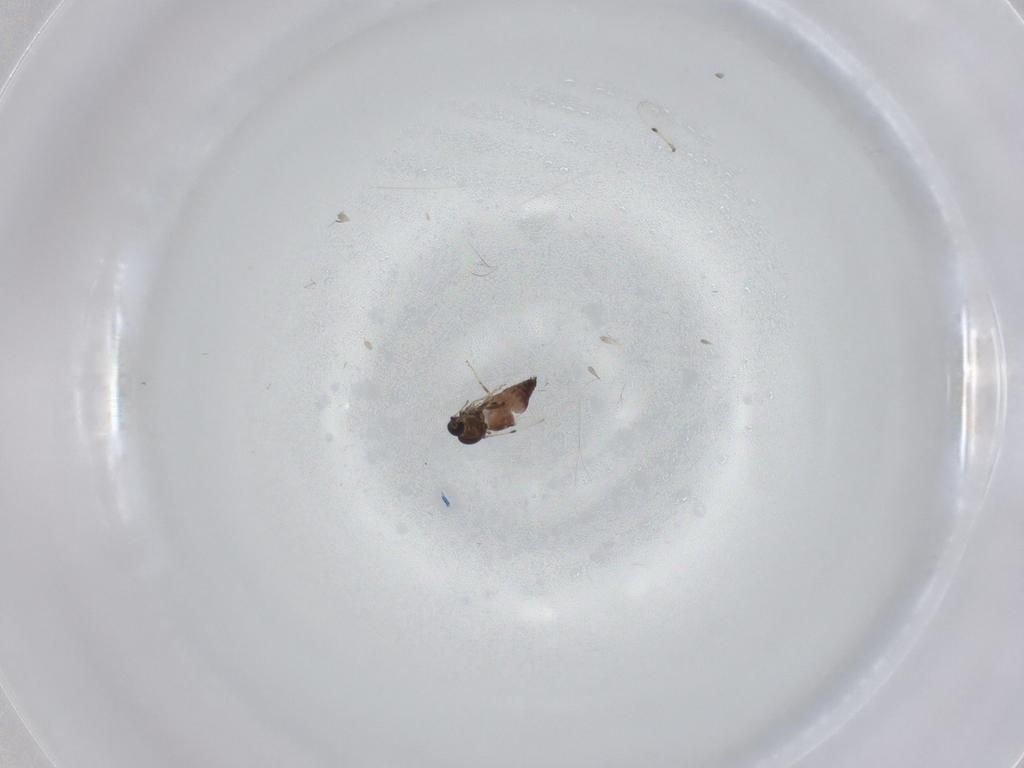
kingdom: Animalia
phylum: Arthropoda
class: Insecta
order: Diptera
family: Ceratopogonidae
